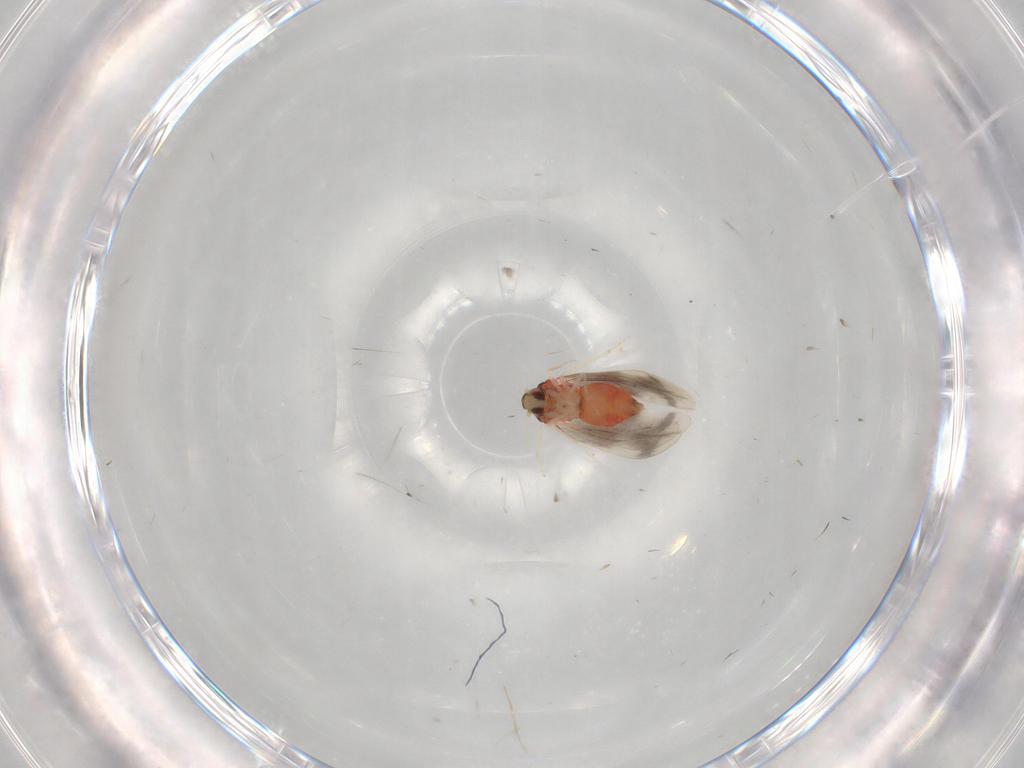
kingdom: Animalia
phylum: Arthropoda
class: Insecta
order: Hemiptera
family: Aleyrodidae
